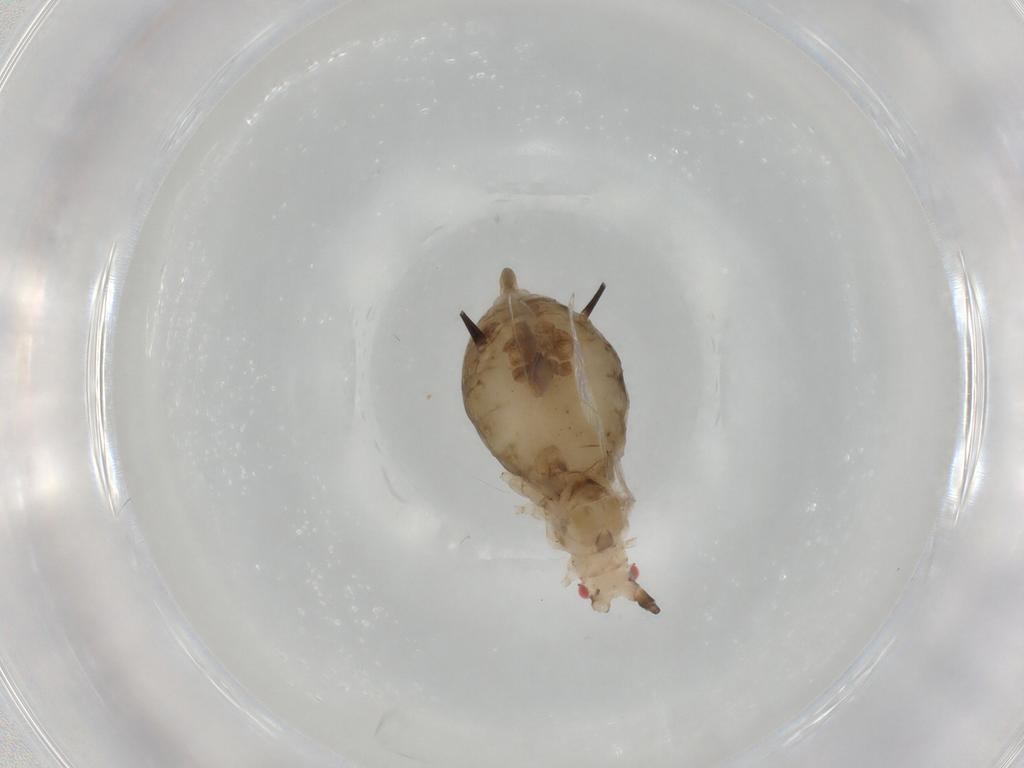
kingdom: Animalia
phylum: Arthropoda
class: Insecta
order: Hemiptera
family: Aphididae
